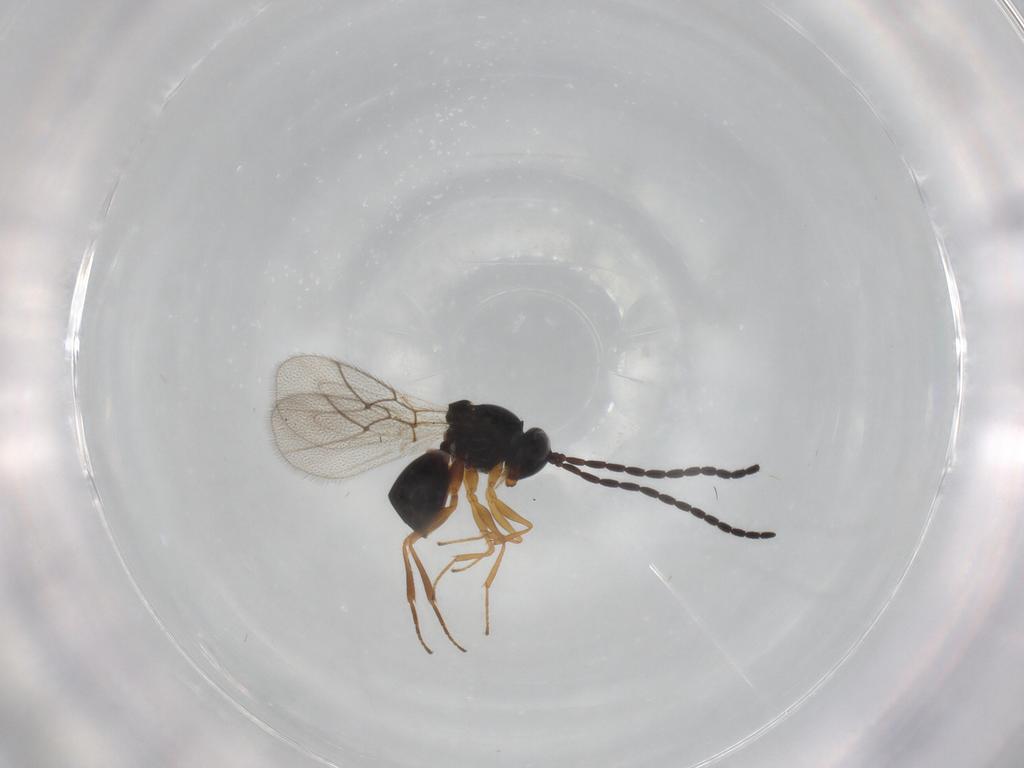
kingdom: Animalia
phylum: Arthropoda
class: Insecta
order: Hymenoptera
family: Figitidae
